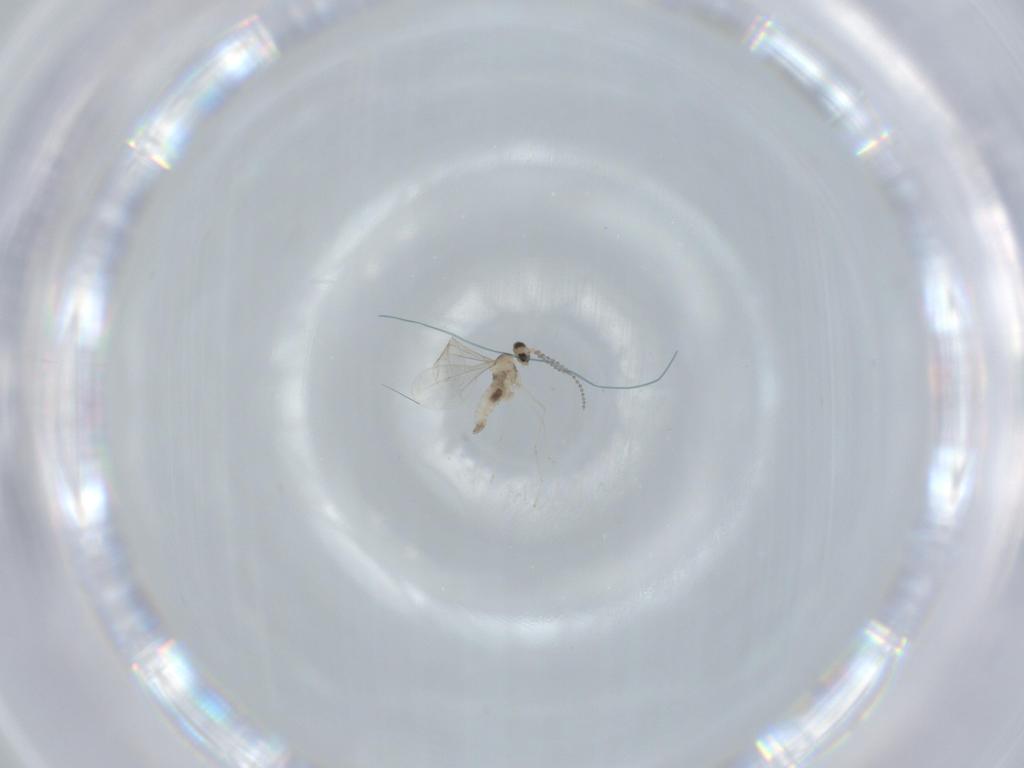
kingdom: Animalia
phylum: Arthropoda
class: Insecta
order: Diptera
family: Cecidomyiidae
